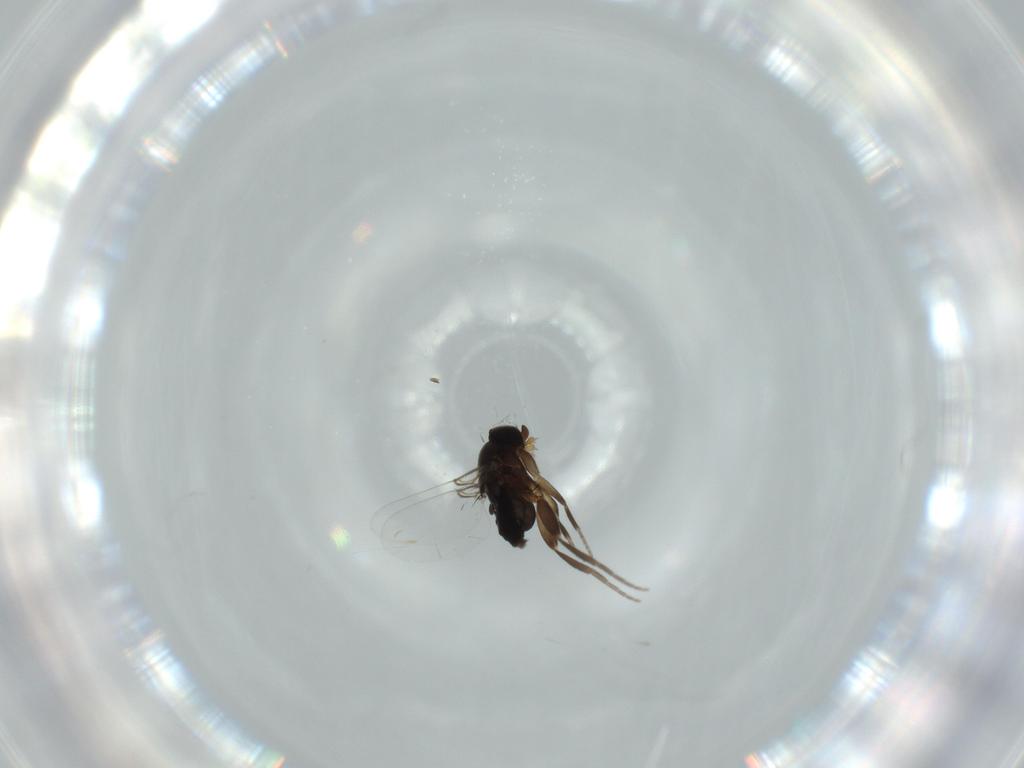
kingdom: Animalia
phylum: Arthropoda
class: Insecta
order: Diptera
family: Phoridae
